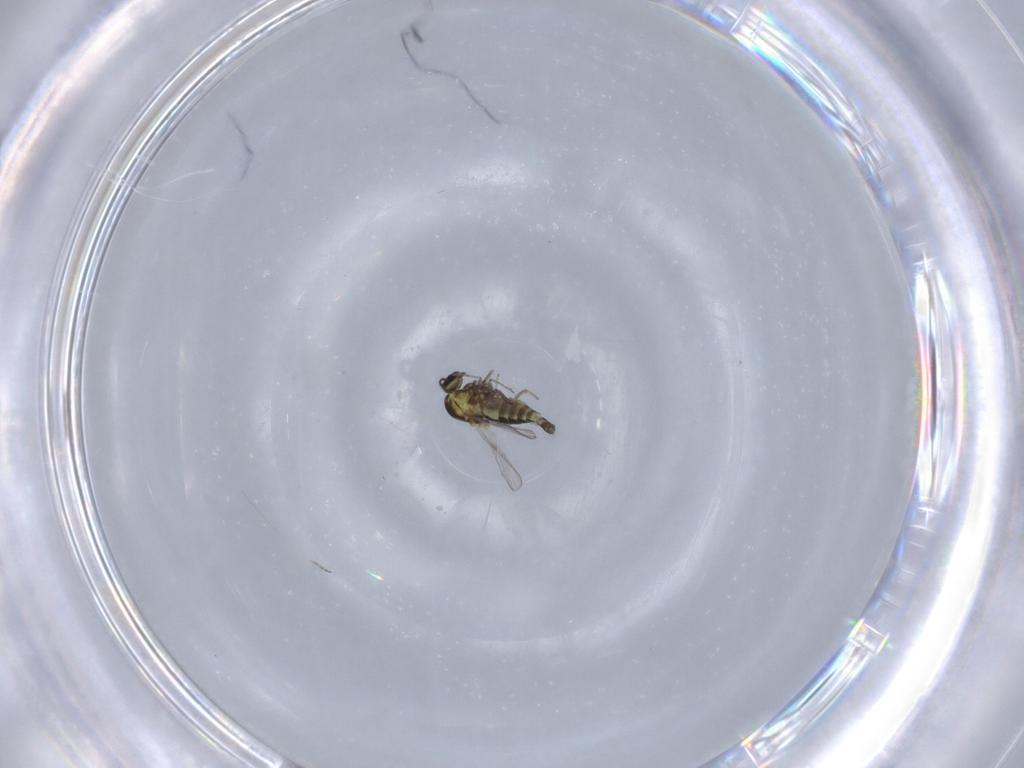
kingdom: Animalia
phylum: Arthropoda
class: Insecta
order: Diptera
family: Ceratopogonidae
